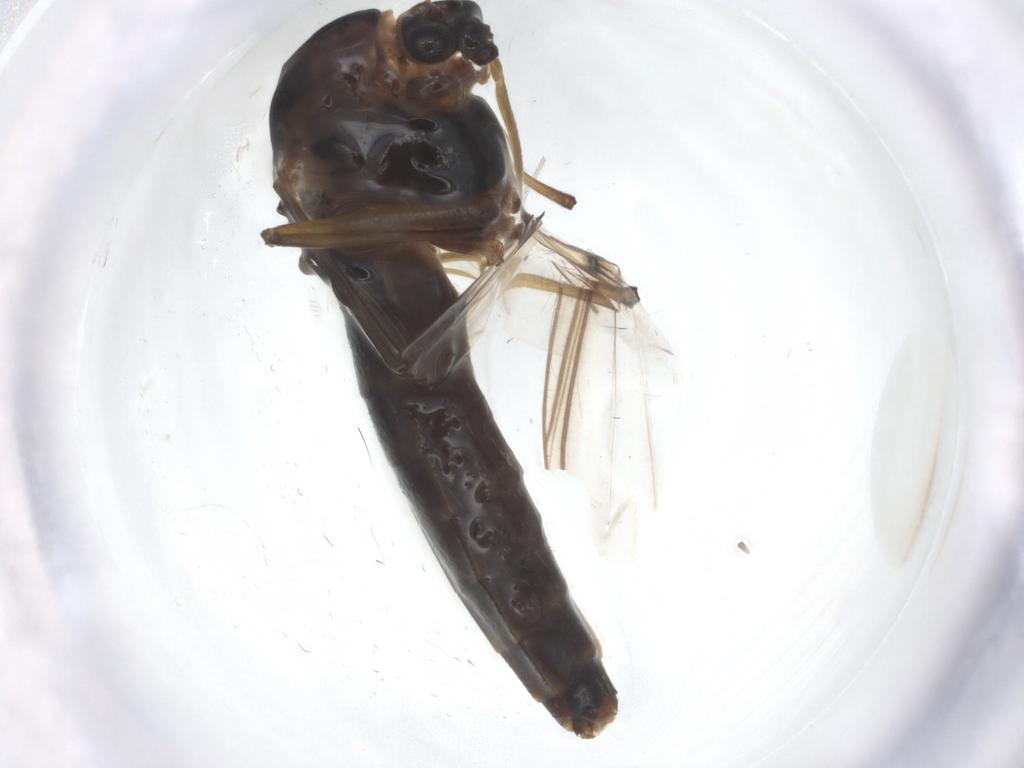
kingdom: Animalia
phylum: Arthropoda
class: Insecta
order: Diptera
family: Chironomidae
